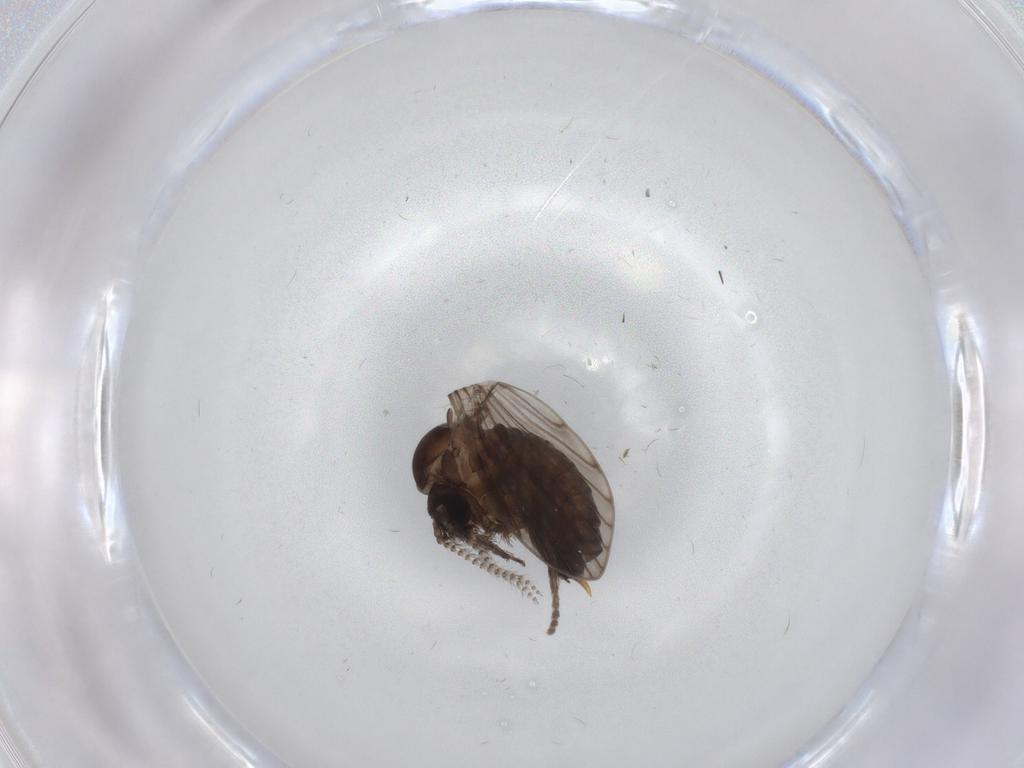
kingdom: Animalia
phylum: Arthropoda
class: Insecta
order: Diptera
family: Psychodidae
